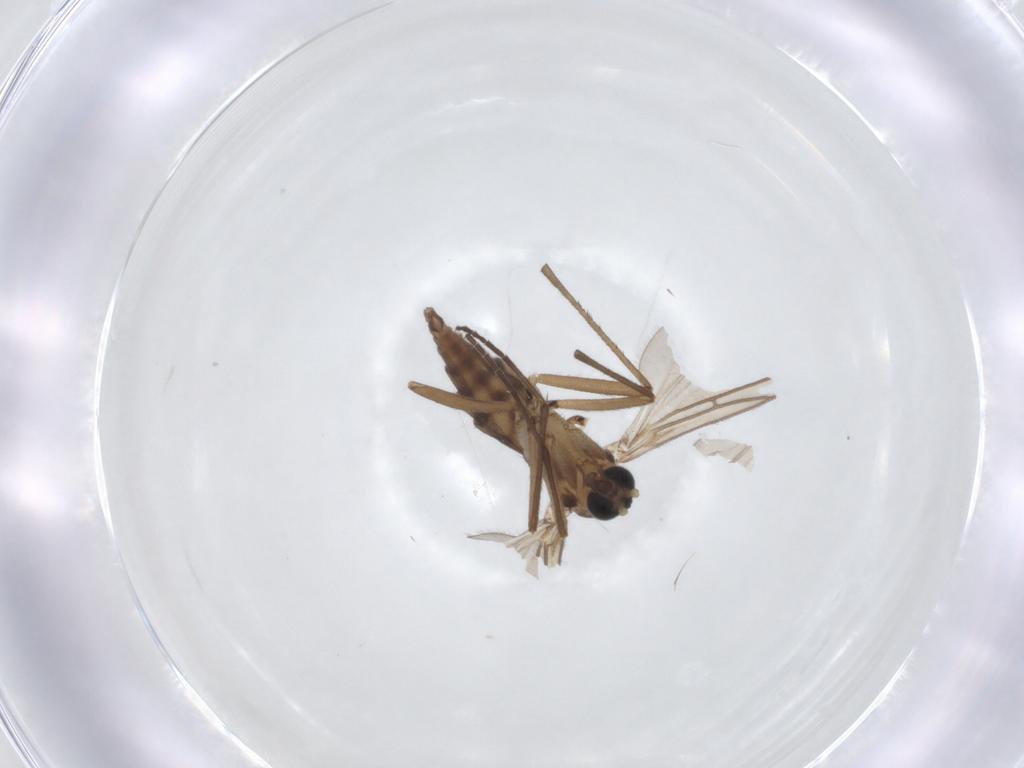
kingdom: Animalia
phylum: Arthropoda
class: Insecta
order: Diptera
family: Sciaridae
